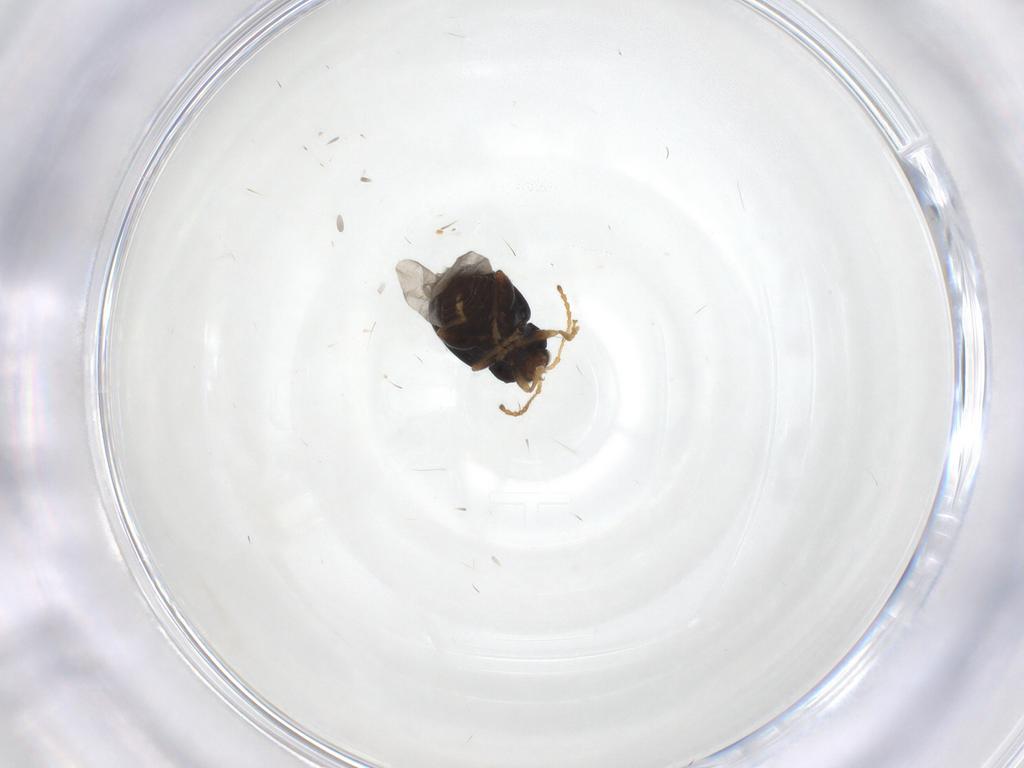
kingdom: Animalia
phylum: Arthropoda
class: Insecta
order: Coleoptera
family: Chrysomelidae
